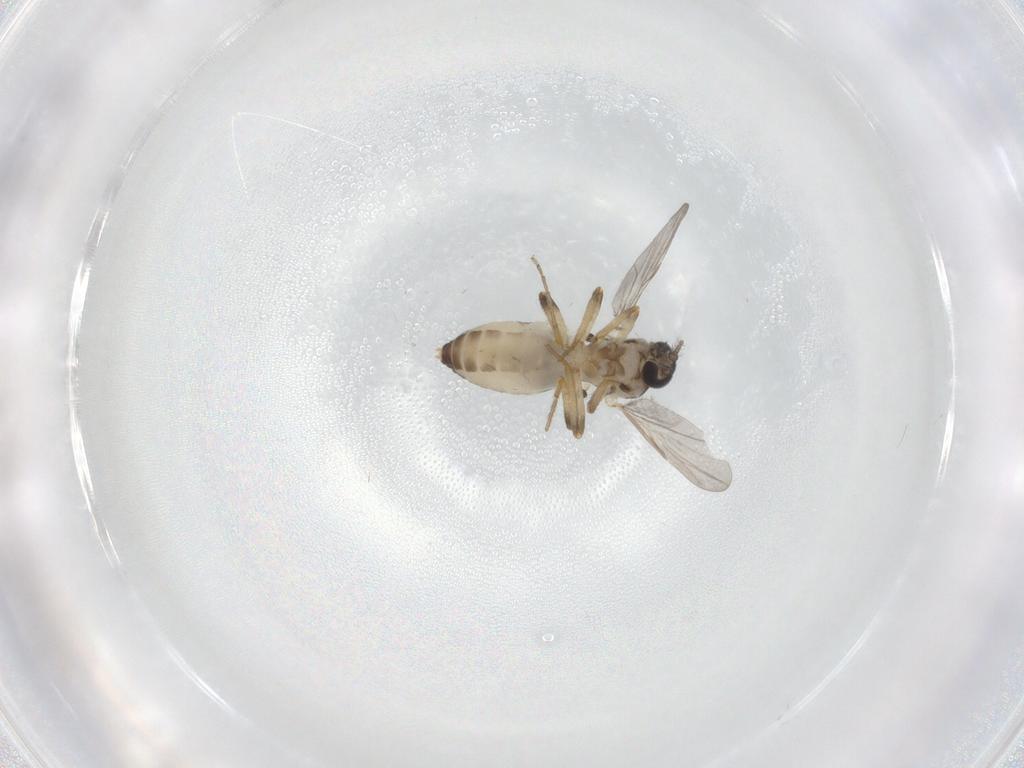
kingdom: Animalia
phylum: Arthropoda
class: Insecta
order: Diptera
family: Ceratopogonidae
